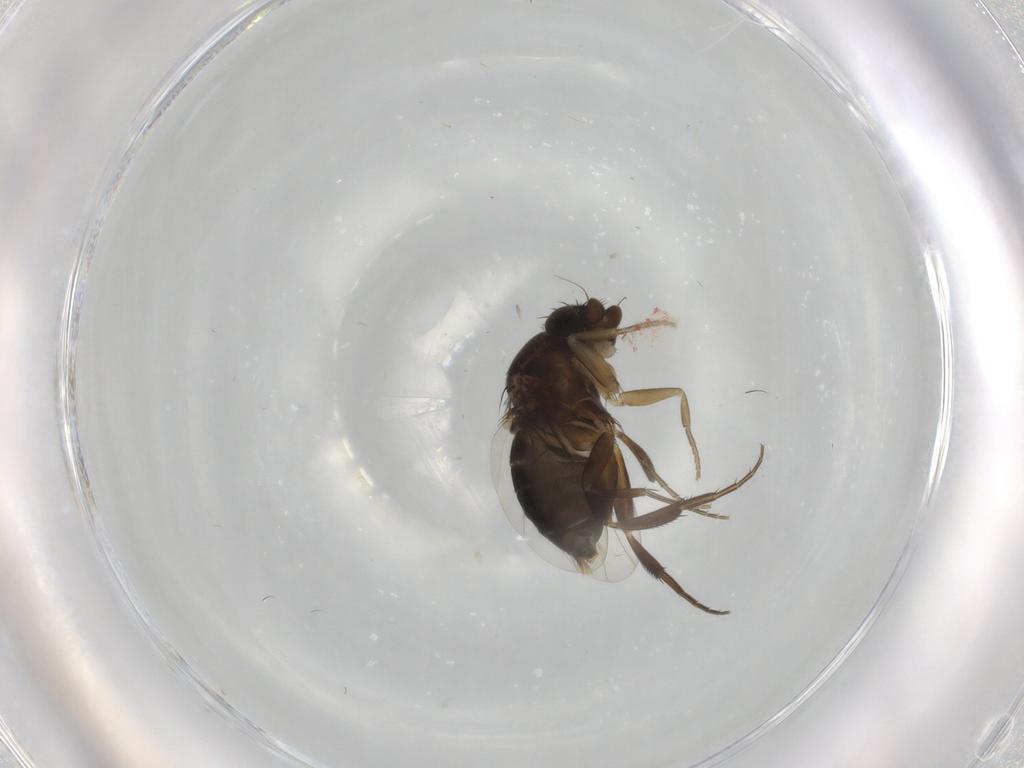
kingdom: Animalia
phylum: Arthropoda
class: Insecta
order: Diptera
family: Phoridae
